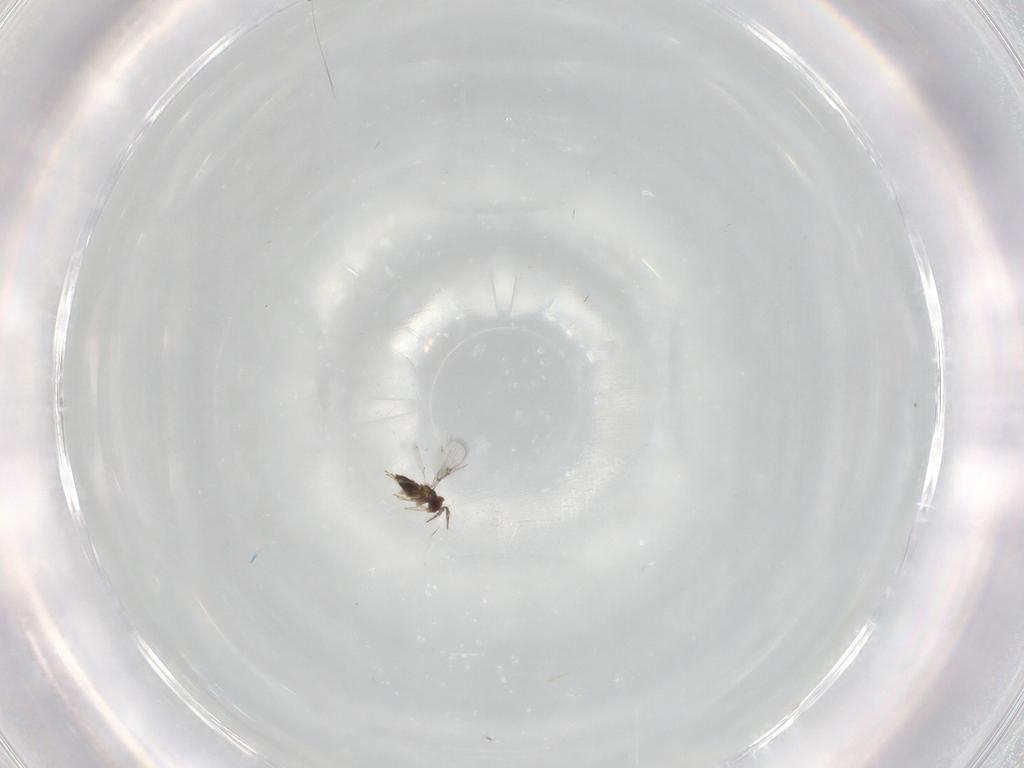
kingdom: Animalia
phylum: Arthropoda
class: Insecta
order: Hymenoptera
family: Trichogrammatidae
